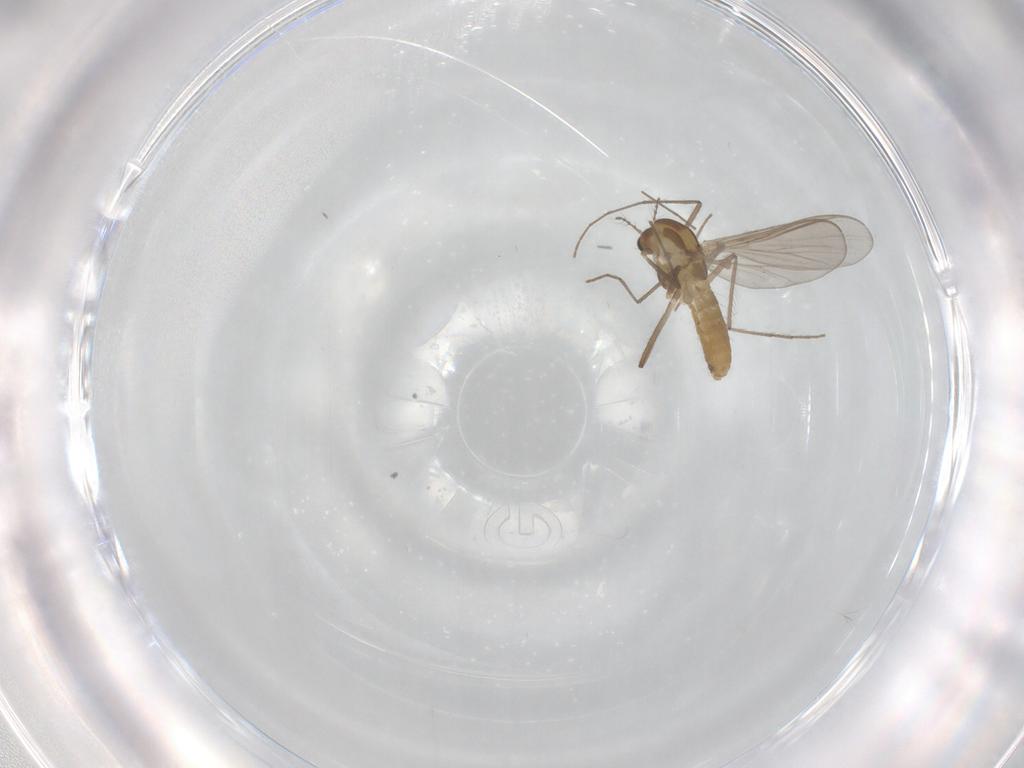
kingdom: Animalia
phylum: Arthropoda
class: Insecta
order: Diptera
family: Chironomidae
